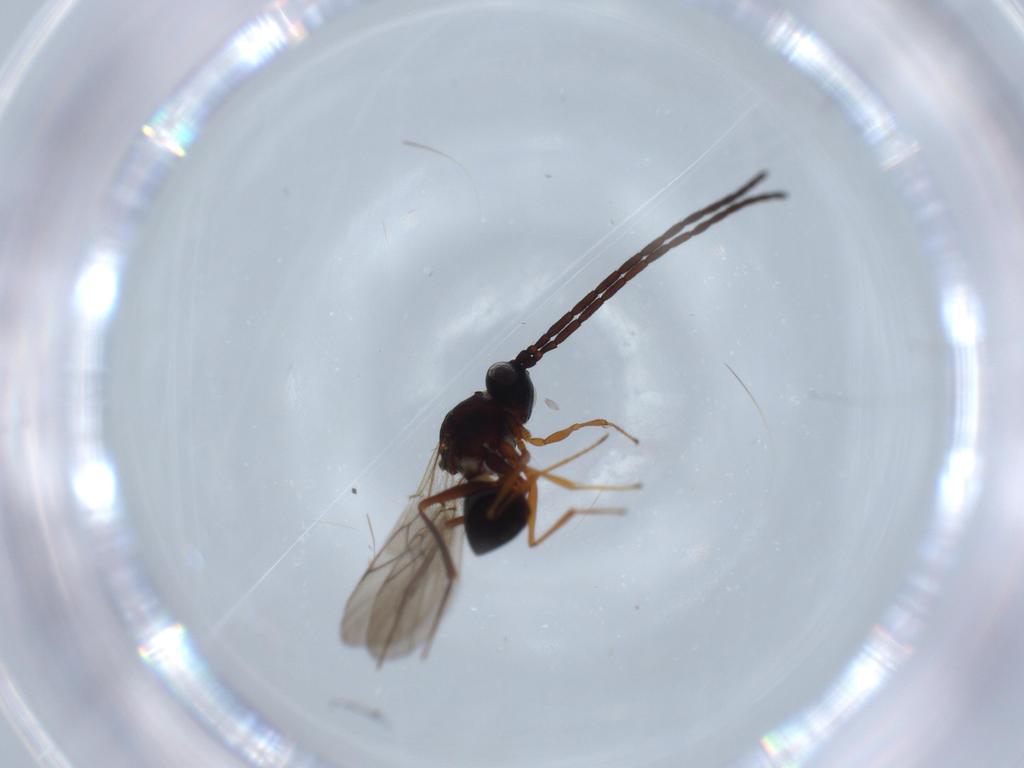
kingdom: Animalia
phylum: Arthropoda
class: Insecta
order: Hymenoptera
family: Figitidae
